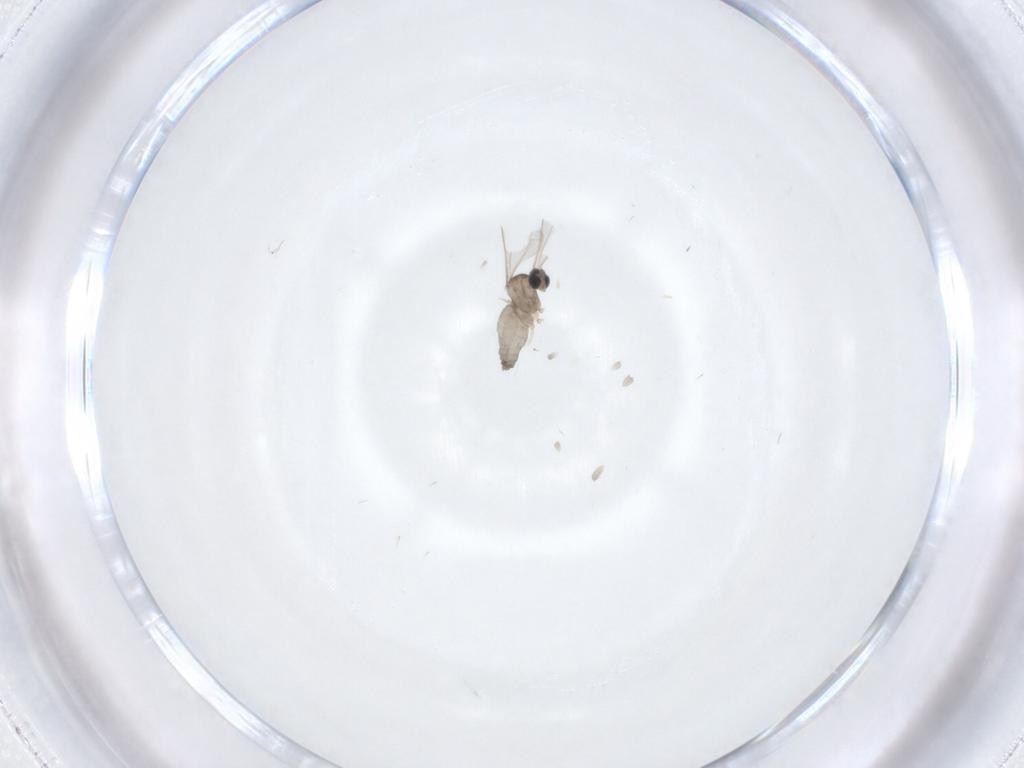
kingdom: Animalia
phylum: Arthropoda
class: Insecta
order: Diptera
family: Cecidomyiidae
